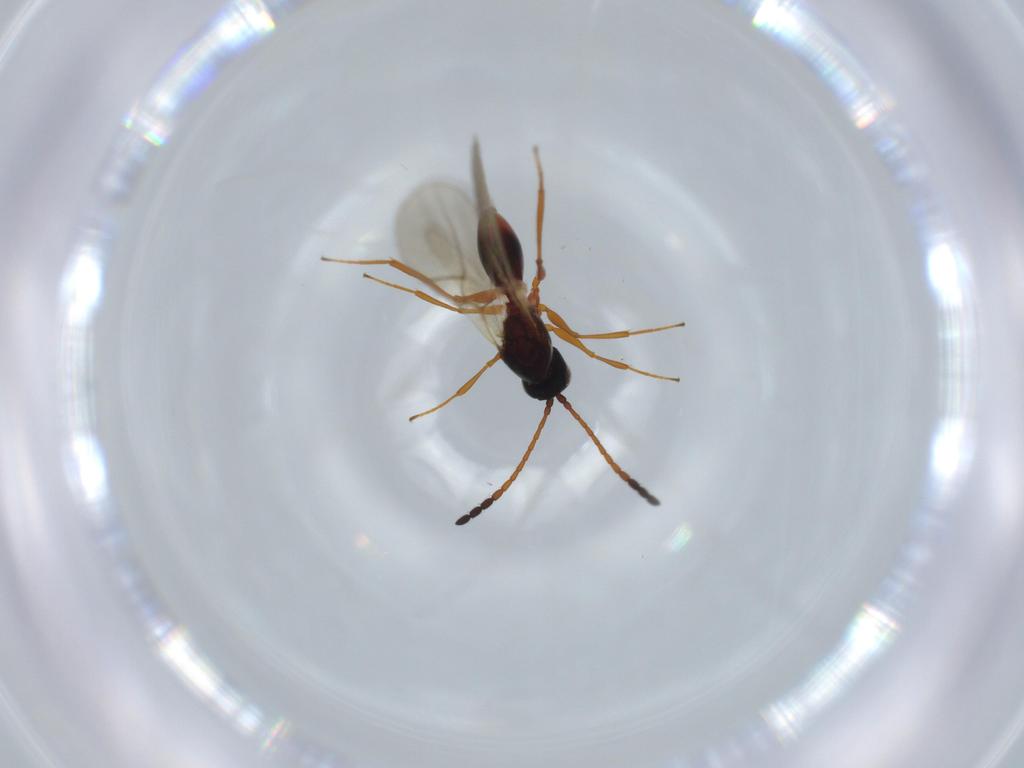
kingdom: Animalia
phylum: Arthropoda
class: Insecta
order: Hymenoptera
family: Figitidae
